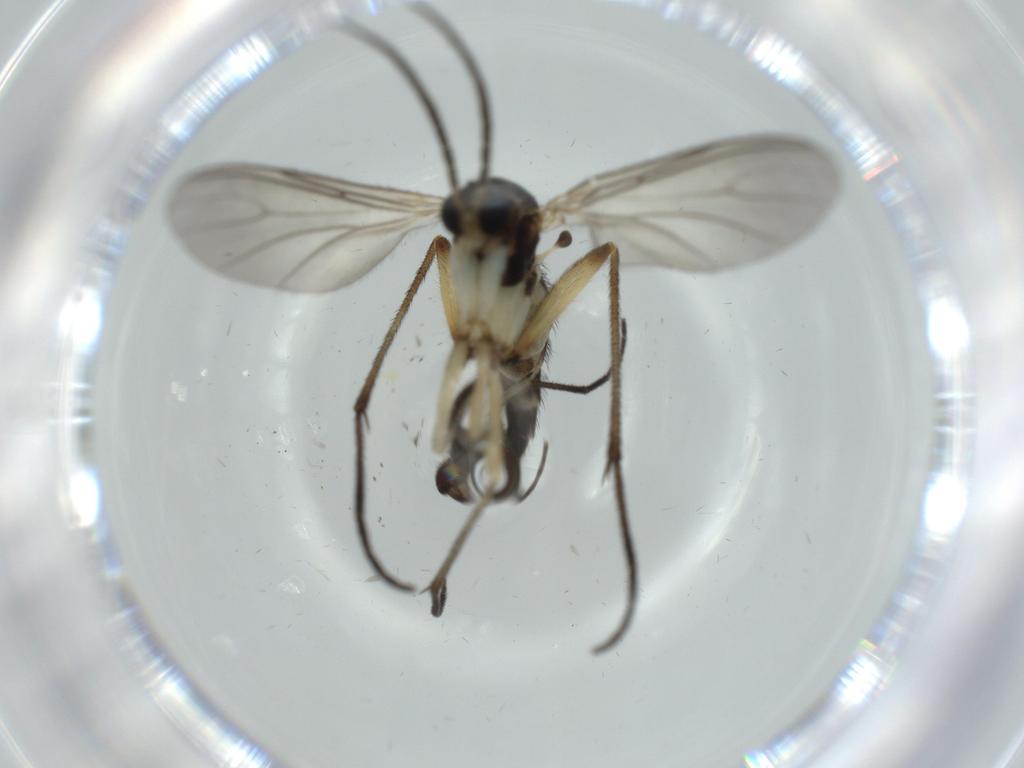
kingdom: Animalia
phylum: Arthropoda
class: Insecta
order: Diptera
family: Sciaridae
